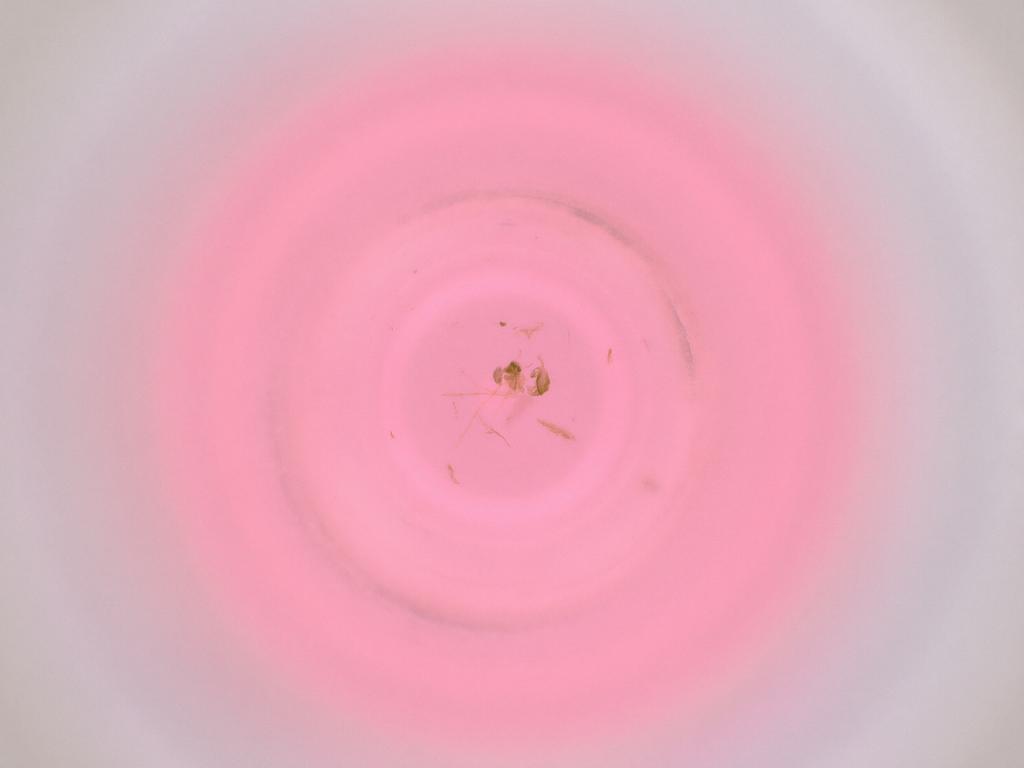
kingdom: Animalia
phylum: Arthropoda
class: Insecta
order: Diptera
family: Cecidomyiidae
